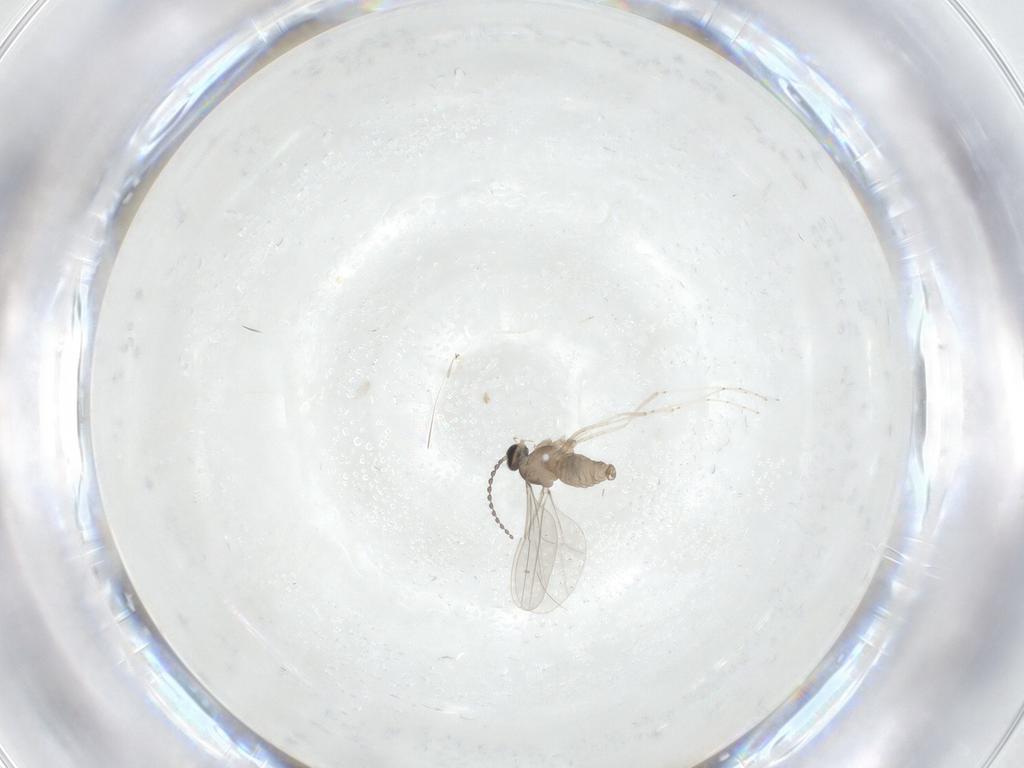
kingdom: Animalia
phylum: Arthropoda
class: Insecta
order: Diptera
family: Cecidomyiidae
